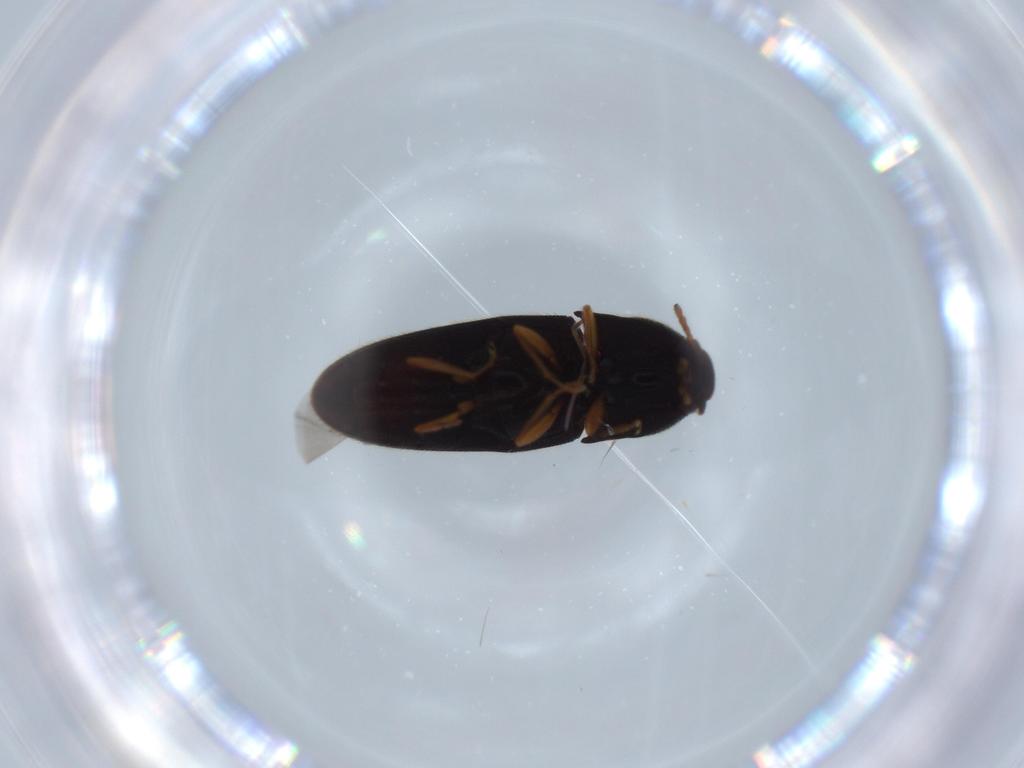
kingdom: Animalia
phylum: Arthropoda
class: Insecta
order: Coleoptera
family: Elateridae
